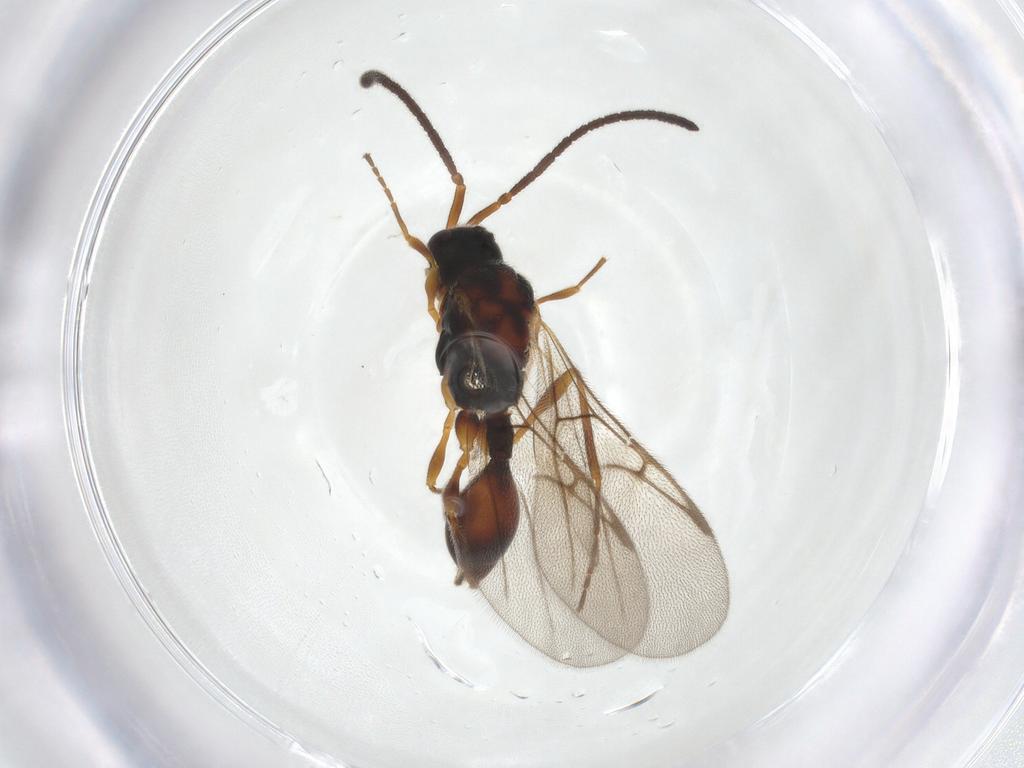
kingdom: Animalia
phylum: Arthropoda
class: Insecta
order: Hymenoptera
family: Diapriidae
